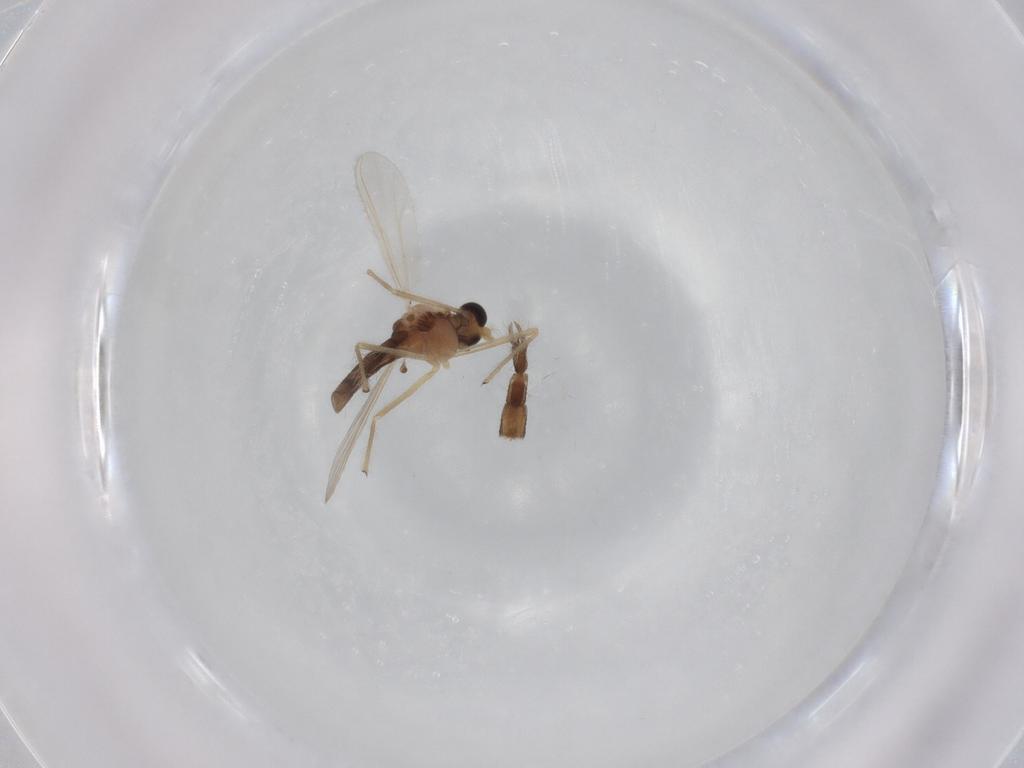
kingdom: Animalia
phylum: Arthropoda
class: Insecta
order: Diptera
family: Chironomidae
